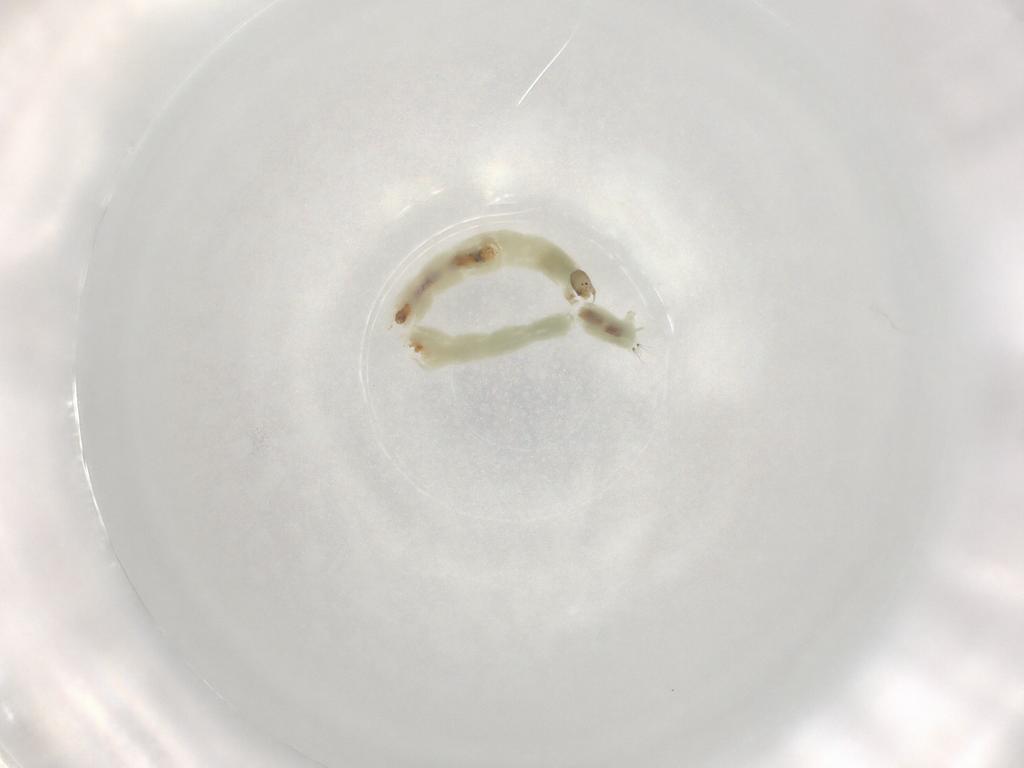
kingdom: Animalia
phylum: Arthropoda
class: Insecta
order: Diptera
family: Chironomidae
